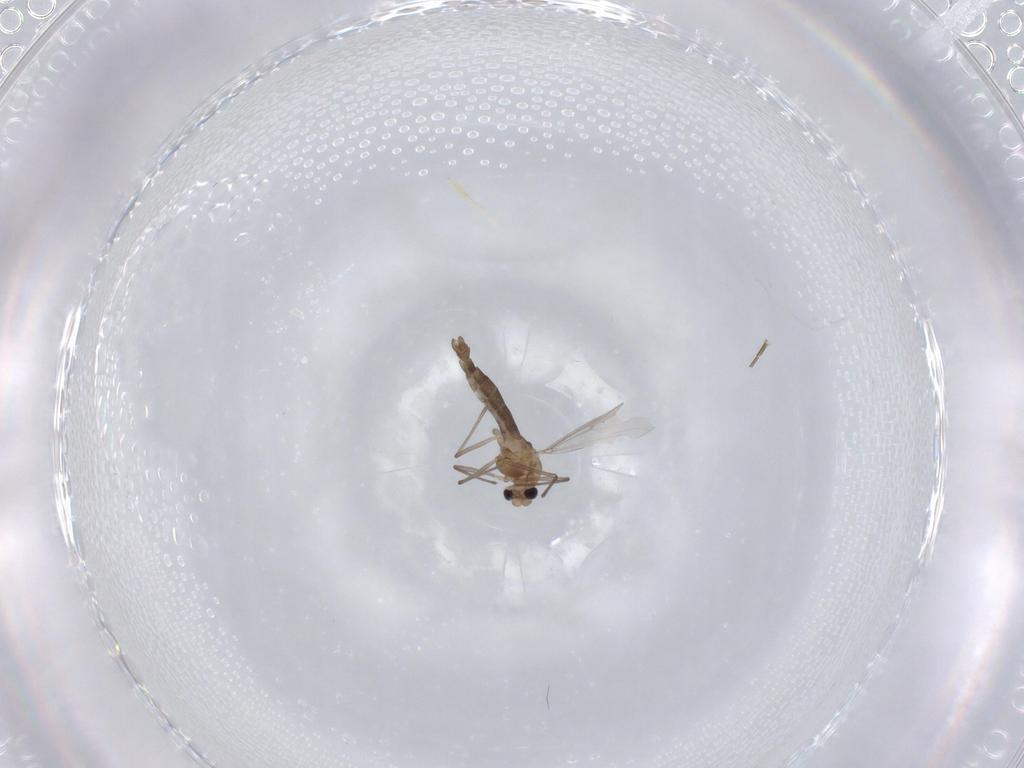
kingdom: Animalia
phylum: Arthropoda
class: Insecta
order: Diptera
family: Chironomidae
